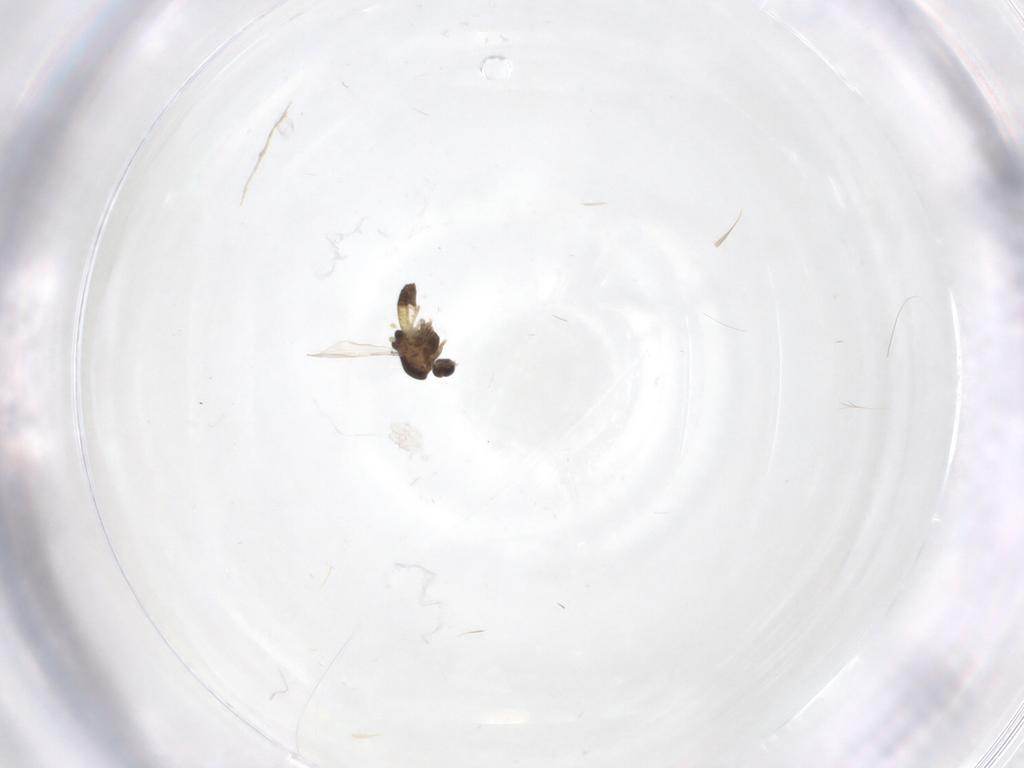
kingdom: Animalia
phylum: Arthropoda
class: Insecta
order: Diptera
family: Chironomidae
